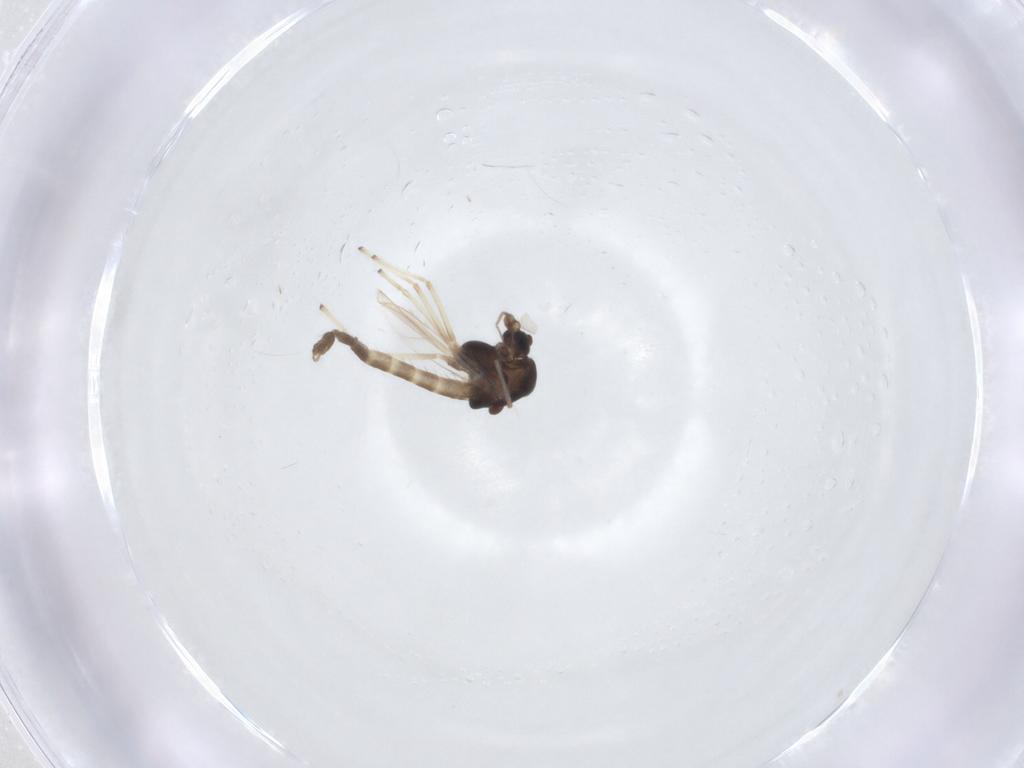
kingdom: Animalia
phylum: Arthropoda
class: Insecta
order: Diptera
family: Chironomidae
